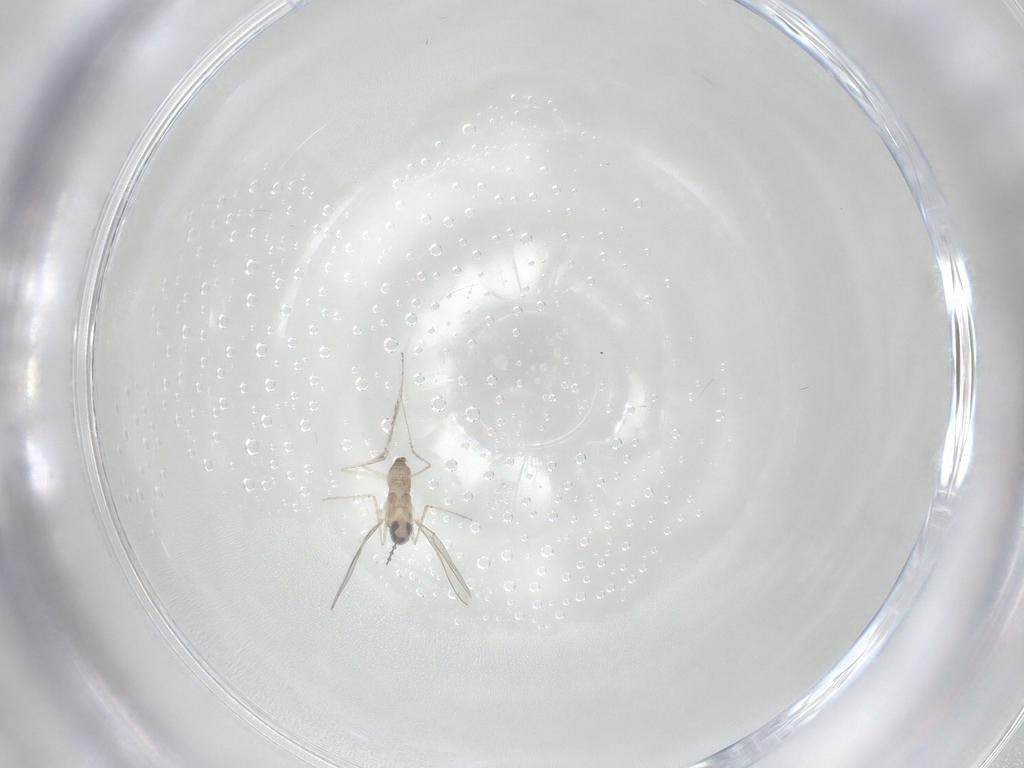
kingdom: Animalia
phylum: Arthropoda
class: Insecta
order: Diptera
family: Cecidomyiidae
